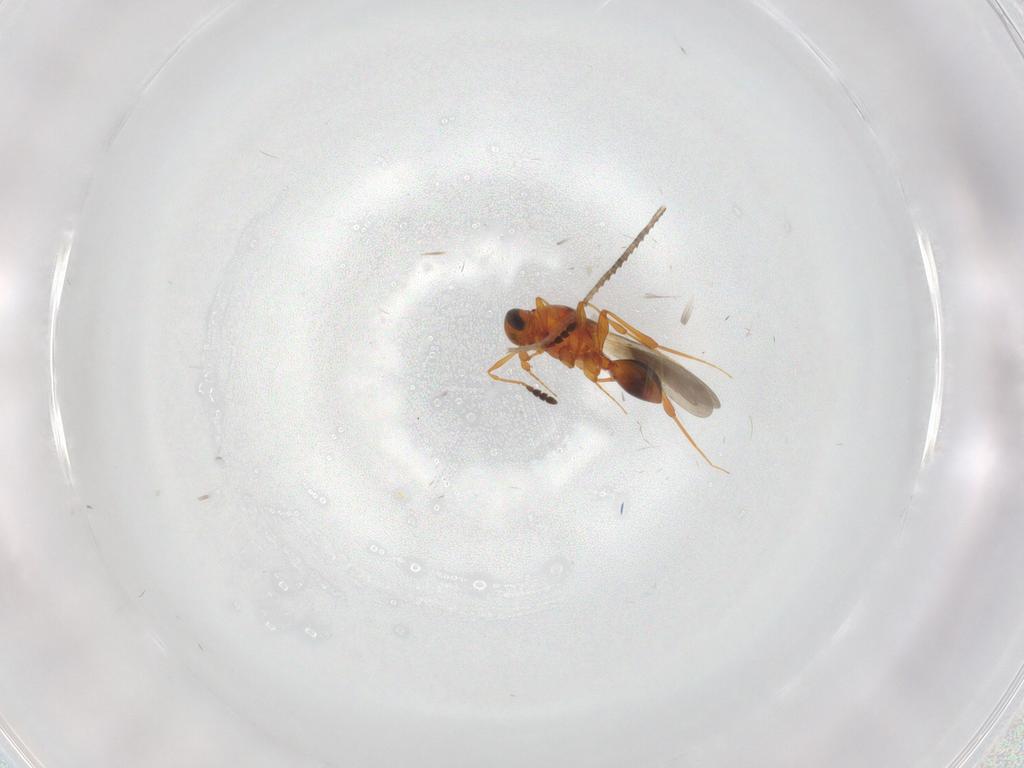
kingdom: Animalia
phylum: Arthropoda
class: Insecta
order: Hymenoptera
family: Platygastridae
